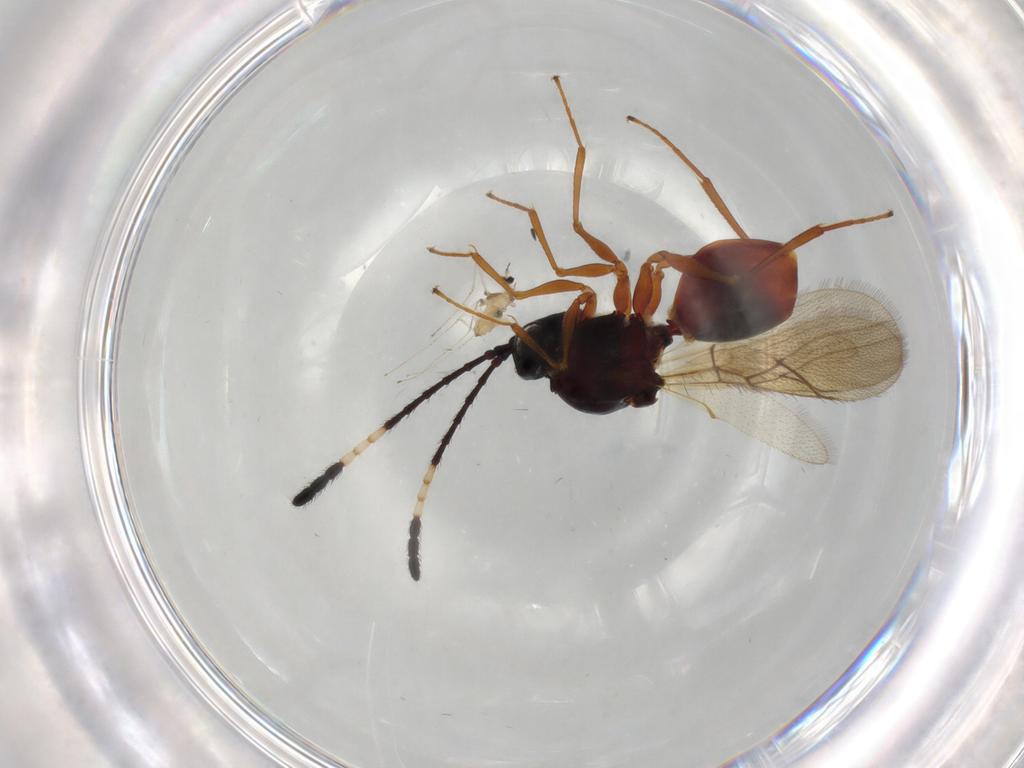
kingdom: Animalia
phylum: Arthropoda
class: Insecta
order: Diptera
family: Cecidomyiidae
